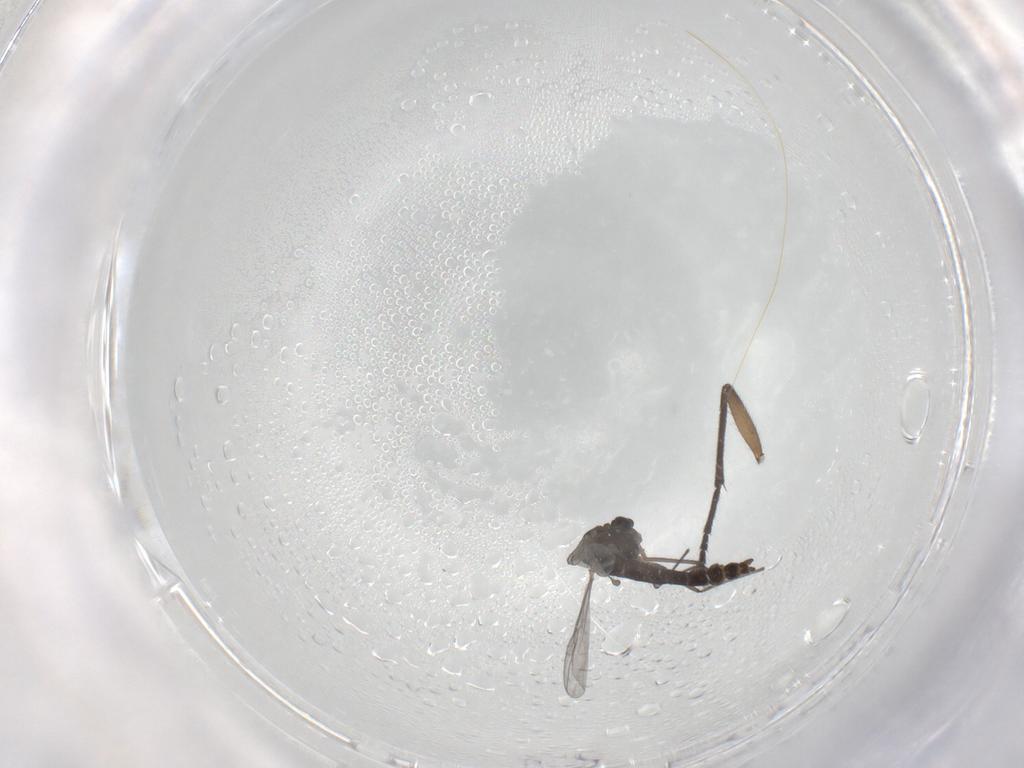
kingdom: Animalia
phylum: Arthropoda
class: Insecta
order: Diptera
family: Chironomidae
